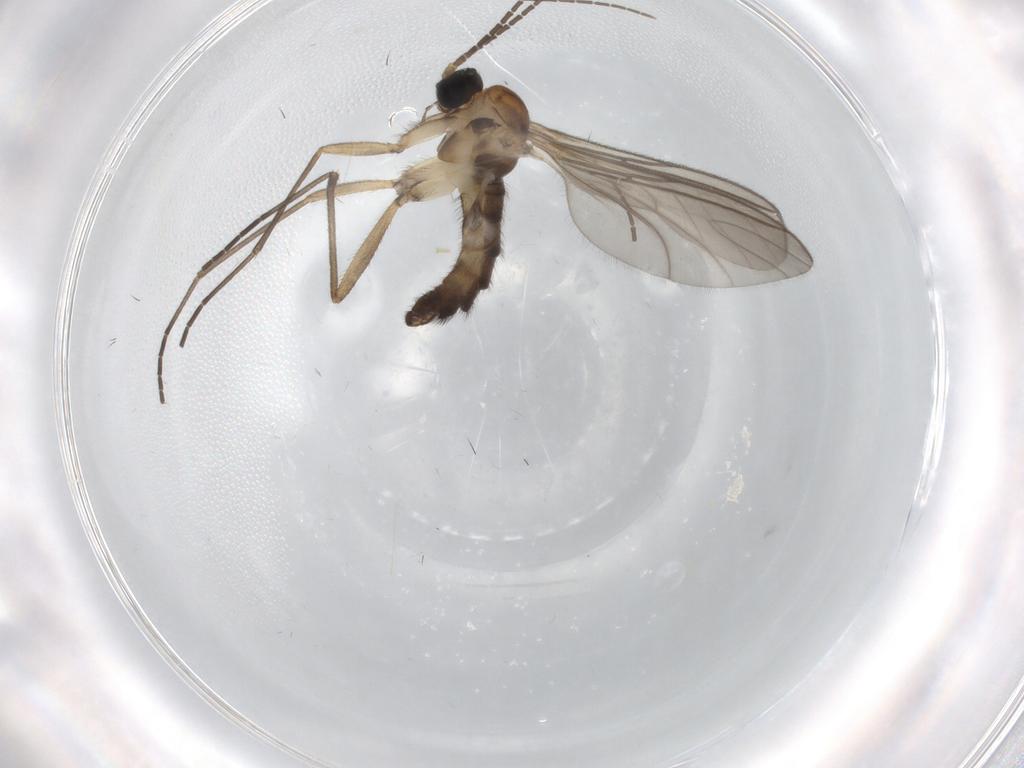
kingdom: Animalia
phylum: Arthropoda
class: Insecta
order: Diptera
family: Sciaridae
